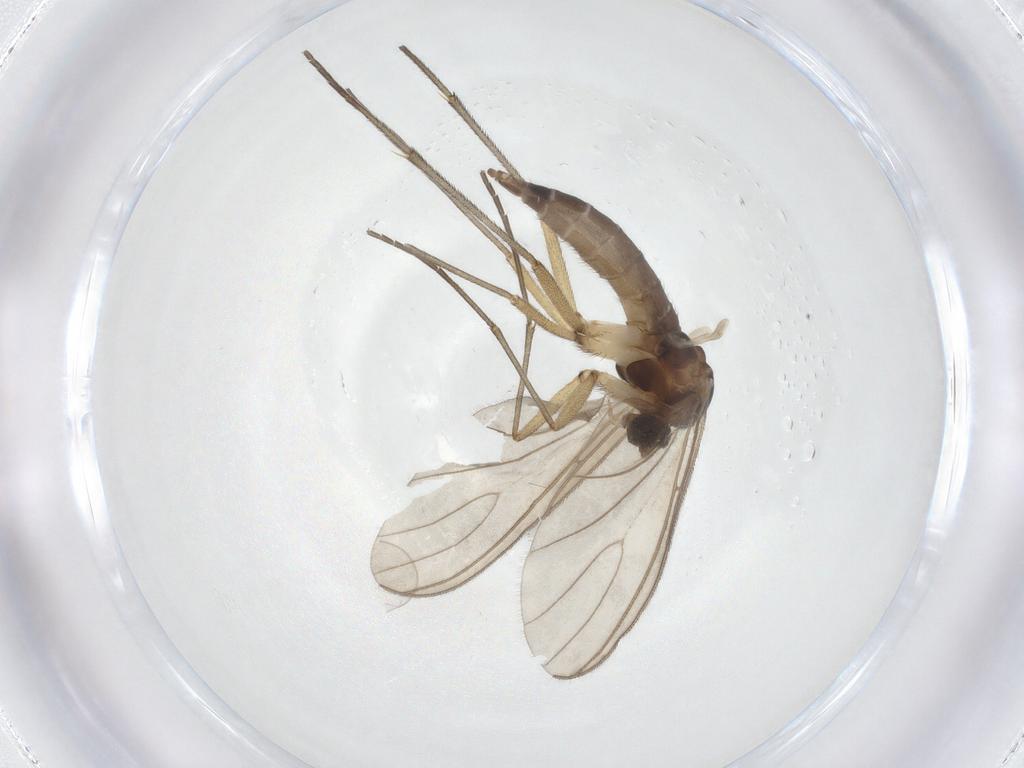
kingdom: Animalia
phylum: Arthropoda
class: Insecta
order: Diptera
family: Sciaridae
